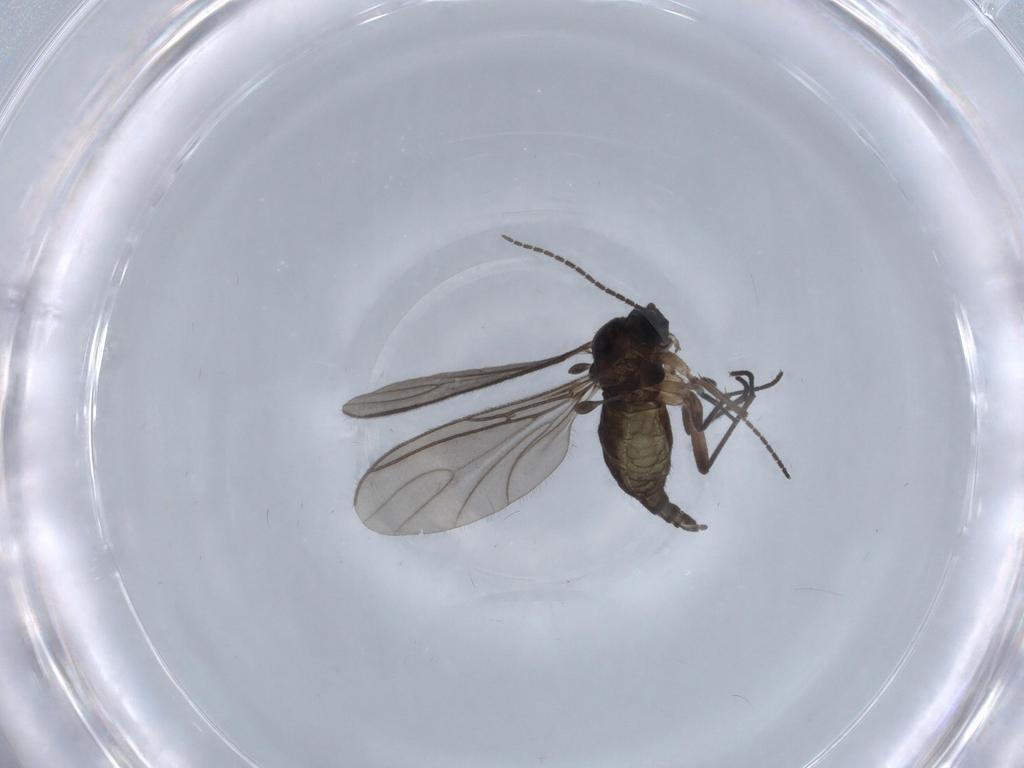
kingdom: Animalia
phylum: Arthropoda
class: Insecta
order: Diptera
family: Sciaridae
